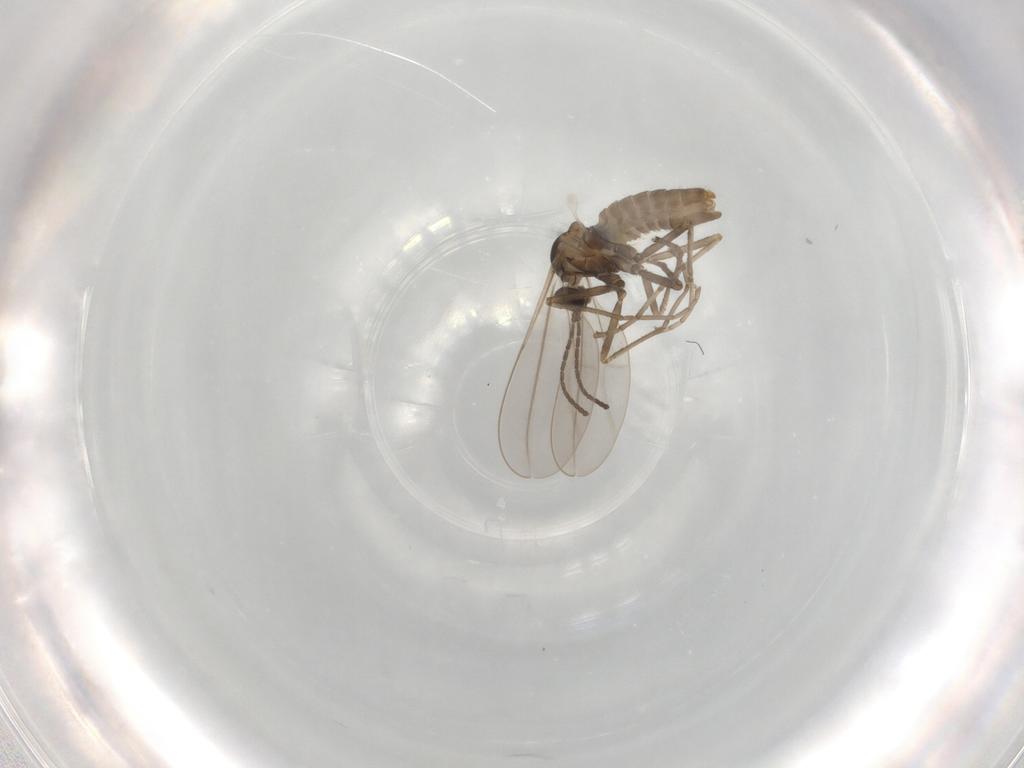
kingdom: Animalia
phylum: Arthropoda
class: Insecta
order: Diptera
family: Cecidomyiidae
